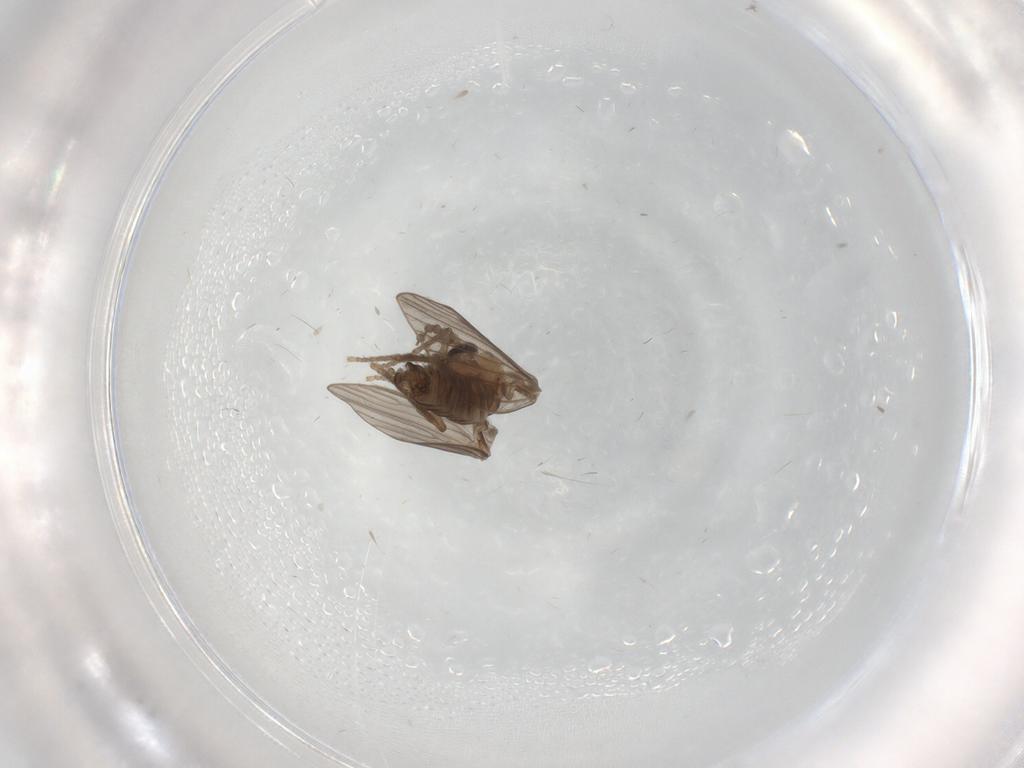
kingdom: Animalia
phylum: Arthropoda
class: Insecta
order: Diptera
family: Psychodidae
